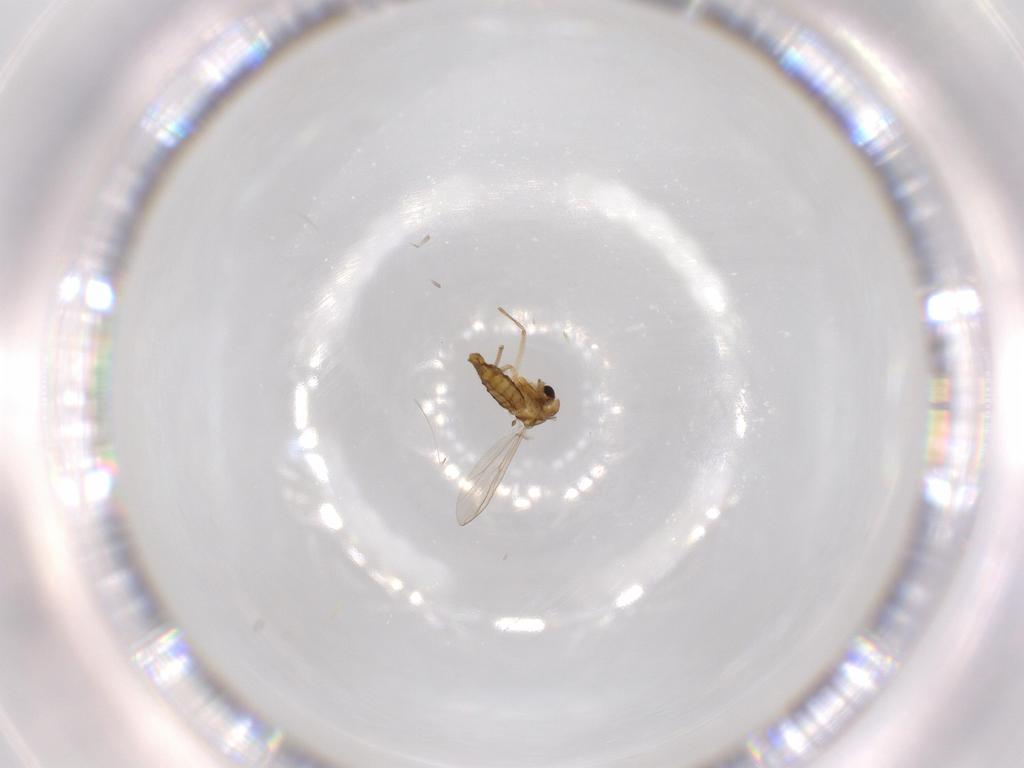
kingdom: Animalia
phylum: Arthropoda
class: Insecta
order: Diptera
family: Chironomidae
